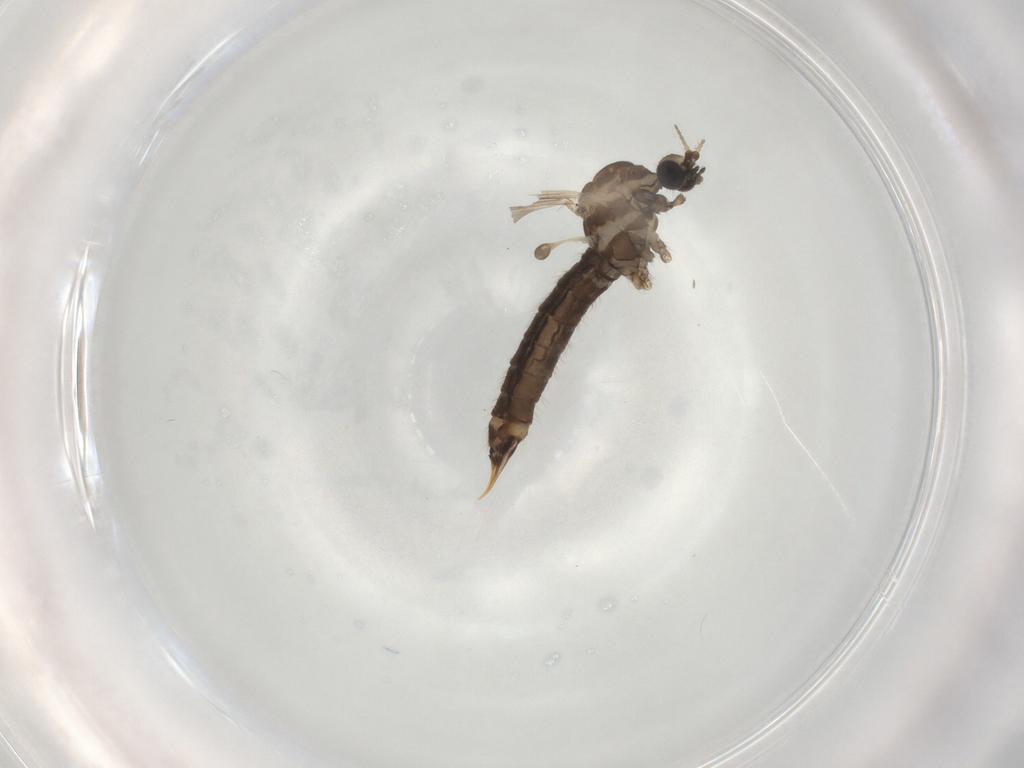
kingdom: Animalia
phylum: Arthropoda
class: Insecta
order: Diptera
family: Limoniidae
